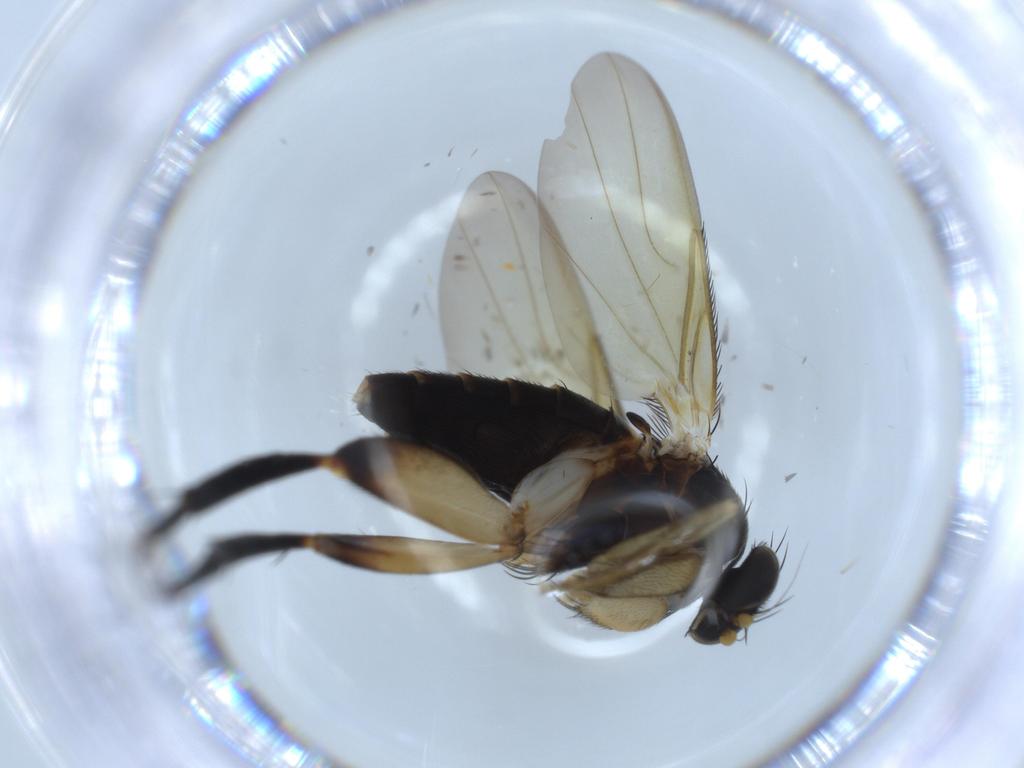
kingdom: Animalia
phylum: Arthropoda
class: Insecta
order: Diptera
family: Phoridae
